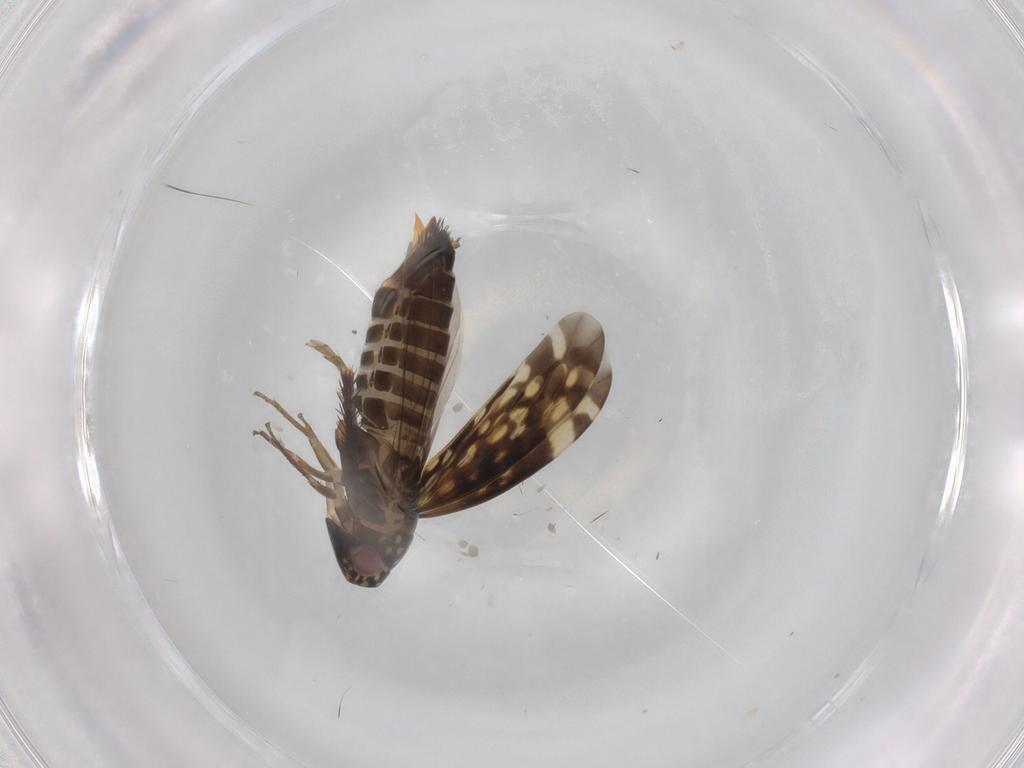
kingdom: Animalia
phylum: Arthropoda
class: Insecta
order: Hemiptera
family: Cicadellidae
